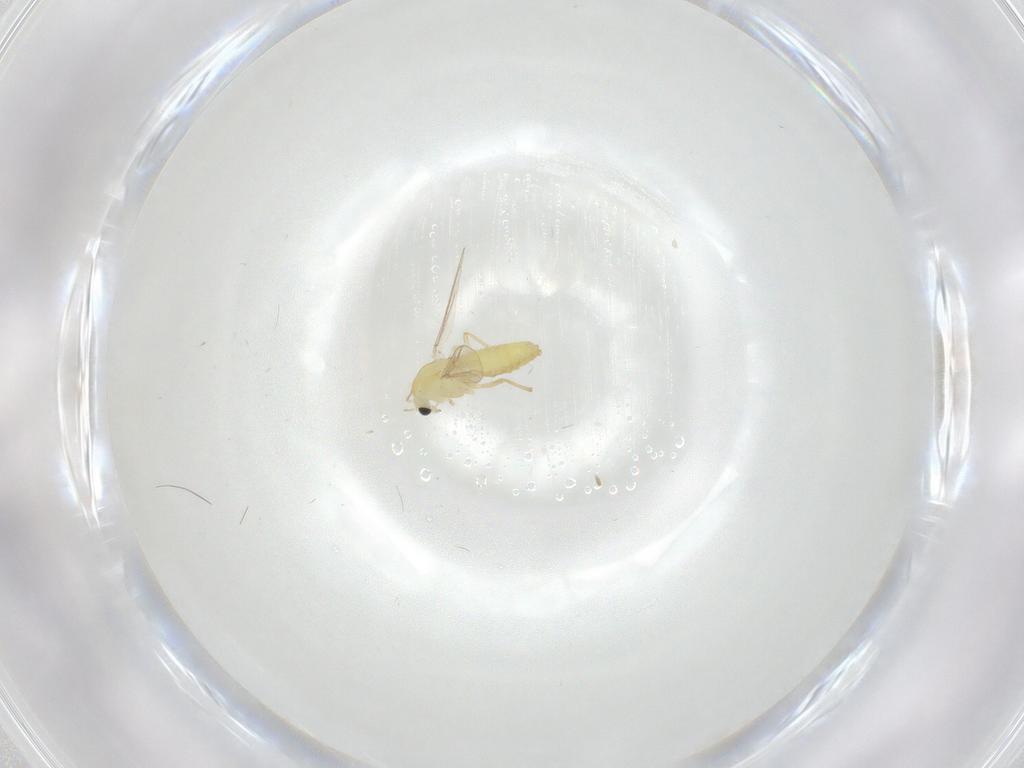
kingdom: Animalia
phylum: Arthropoda
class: Insecta
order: Diptera
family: Chironomidae
